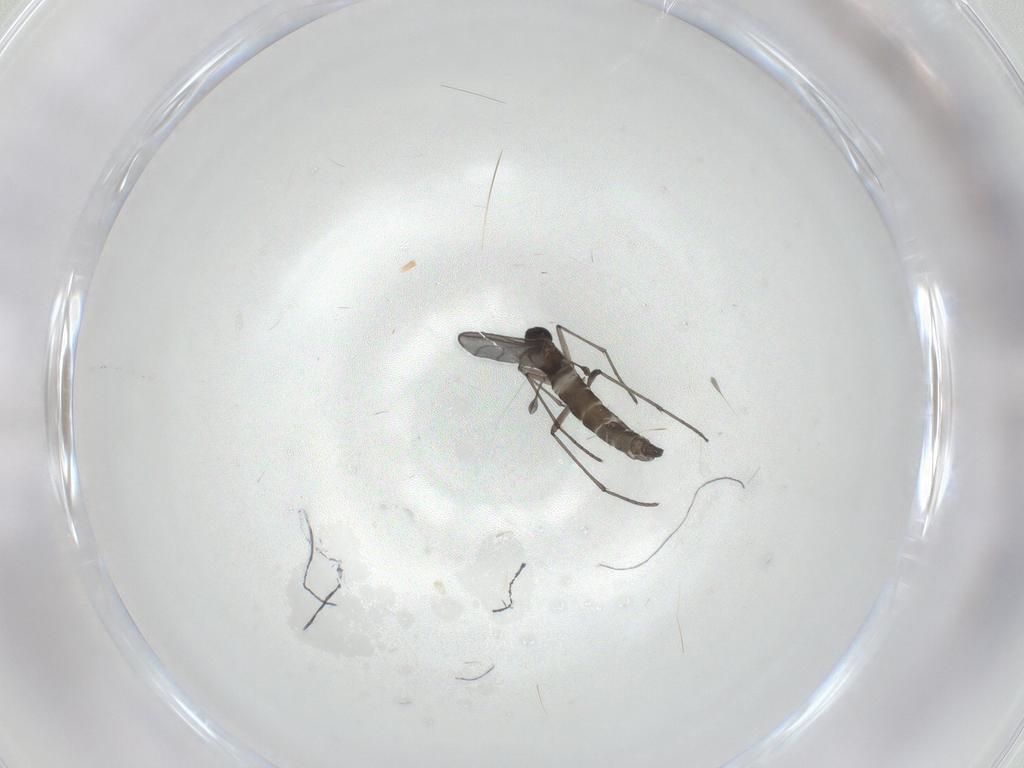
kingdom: Animalia
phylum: Arthropoda
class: Insecta
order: Diptera
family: Sciaridae
